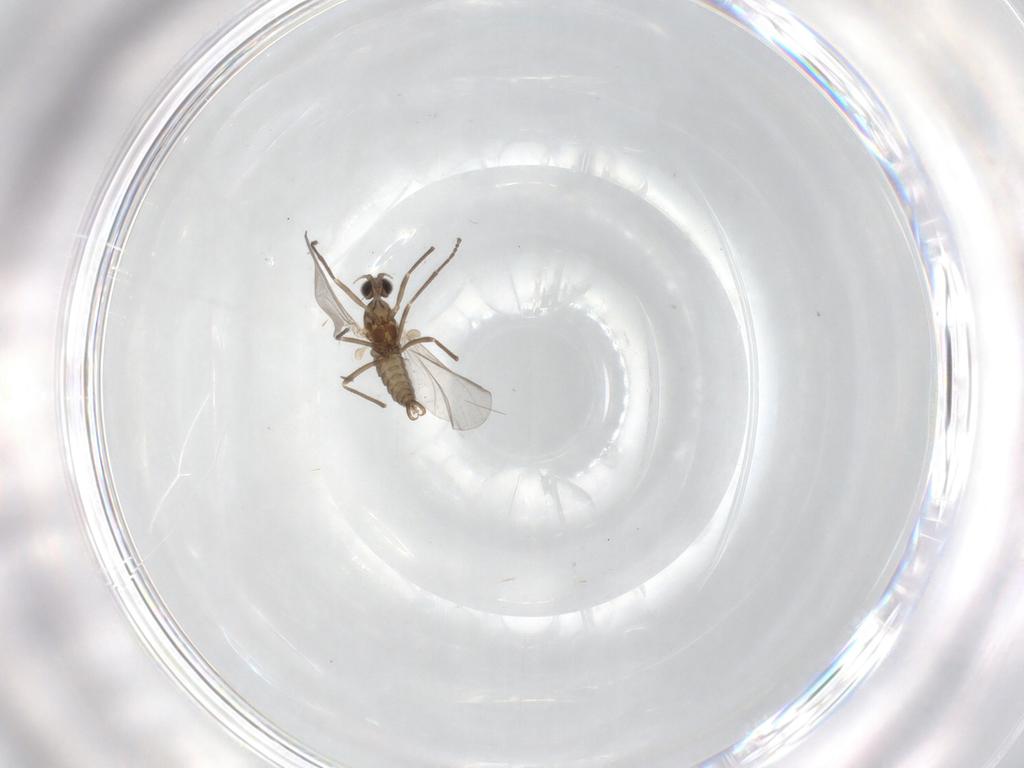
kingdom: Animalia
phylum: Arthropoda
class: Insecta
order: Diptera
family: Cecidomyiidae
